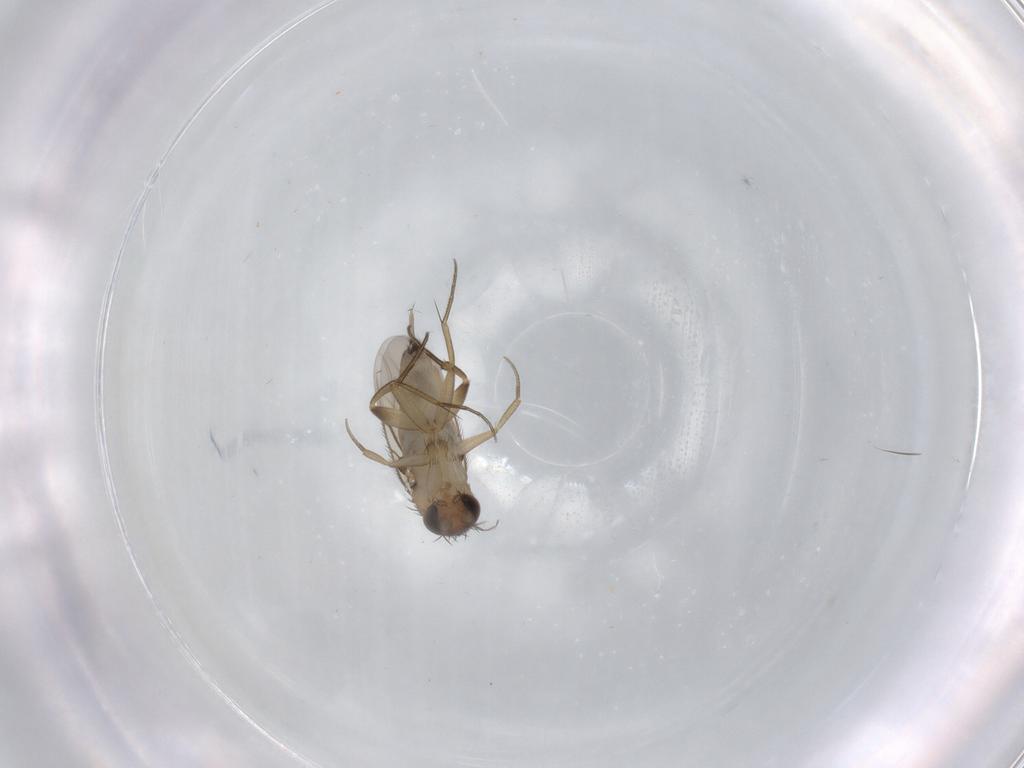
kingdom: Animalia
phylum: Arthropoda
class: Insecta
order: Diptera
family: Phoridae
